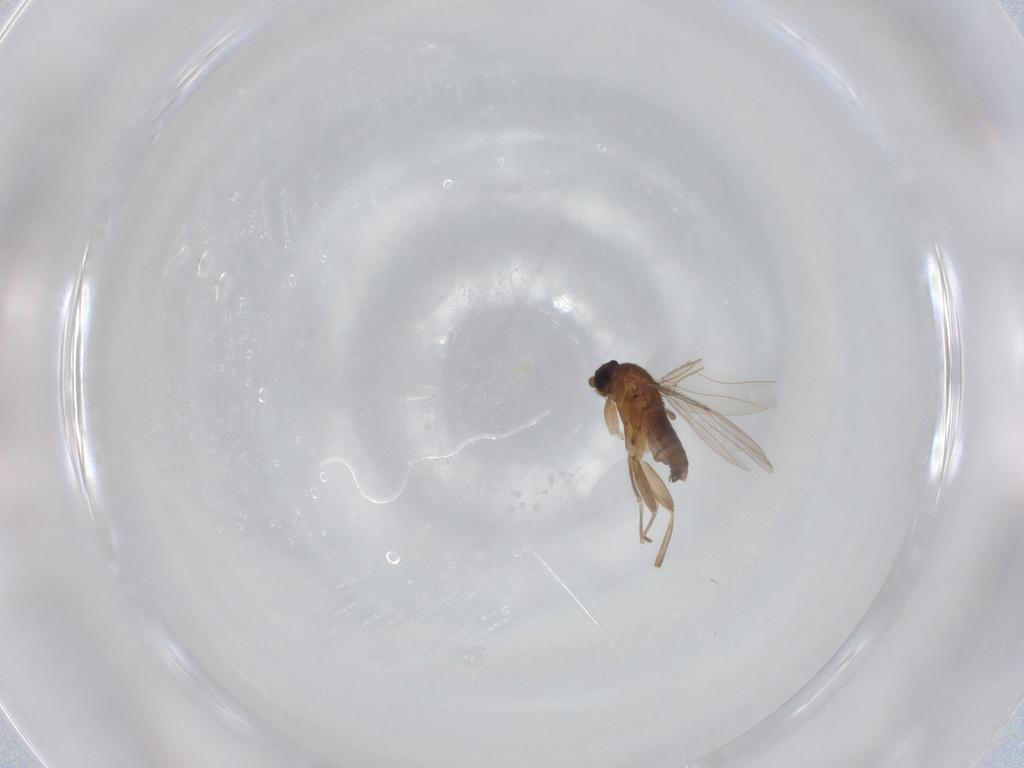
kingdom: Animalia
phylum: Arthropoda
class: Insecta
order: Diptera
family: Phoridae
